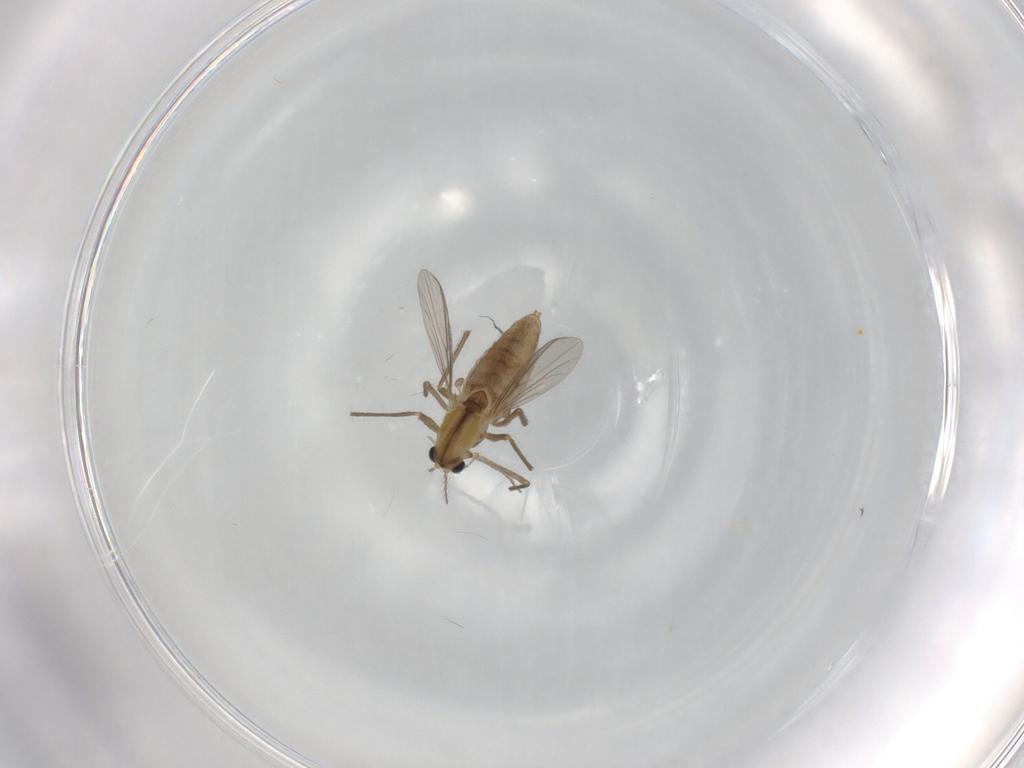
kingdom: Animalia
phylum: Arthropoda
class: Insecta
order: Diptera
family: Chironomidae
